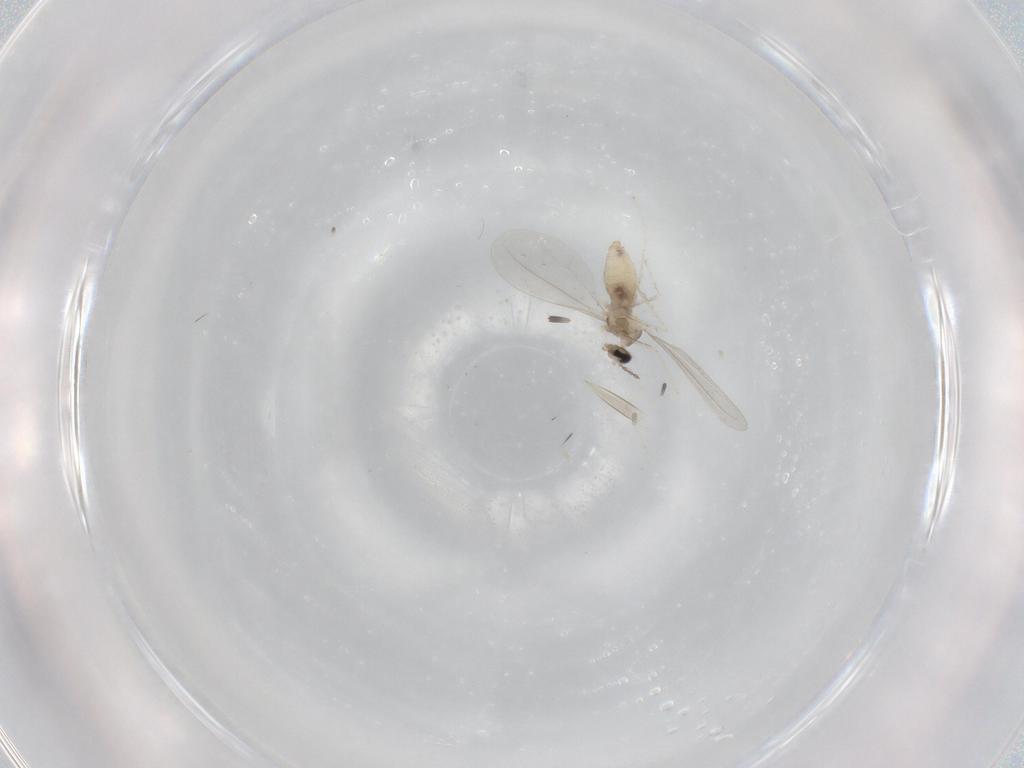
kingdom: Animalia
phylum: Arthropoda
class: Insecta
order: Diptera
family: Cecidomyiidae
